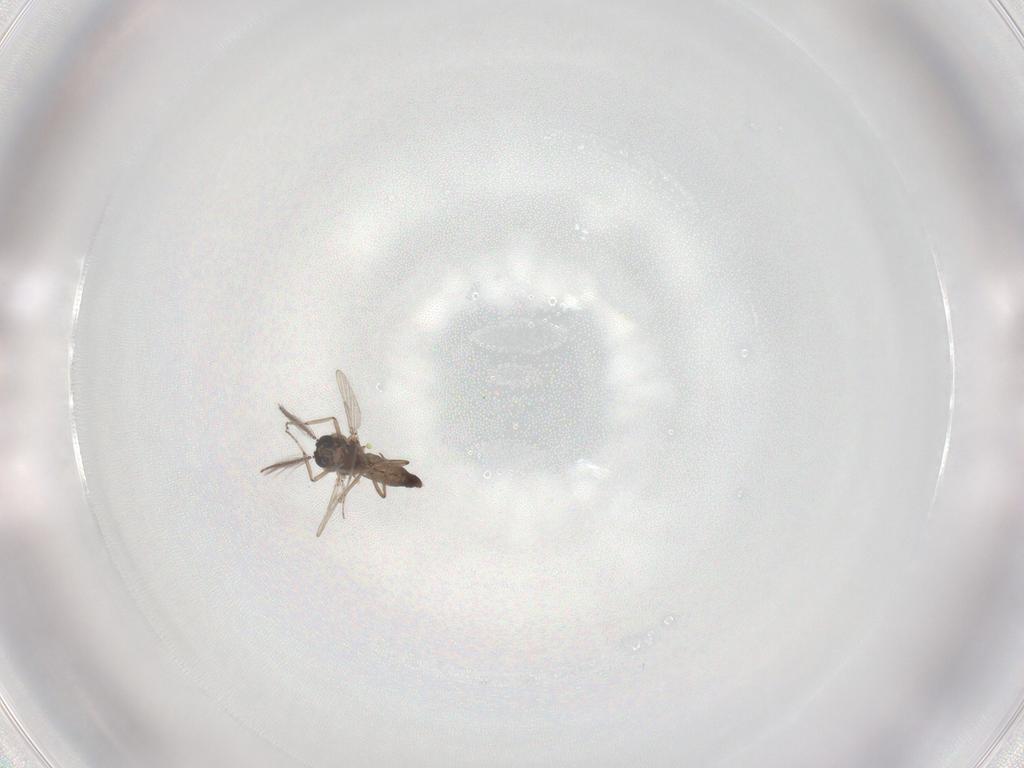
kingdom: Animalia
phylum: Arthropoda
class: Insecta
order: Diptera
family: Ceratopogonidae
